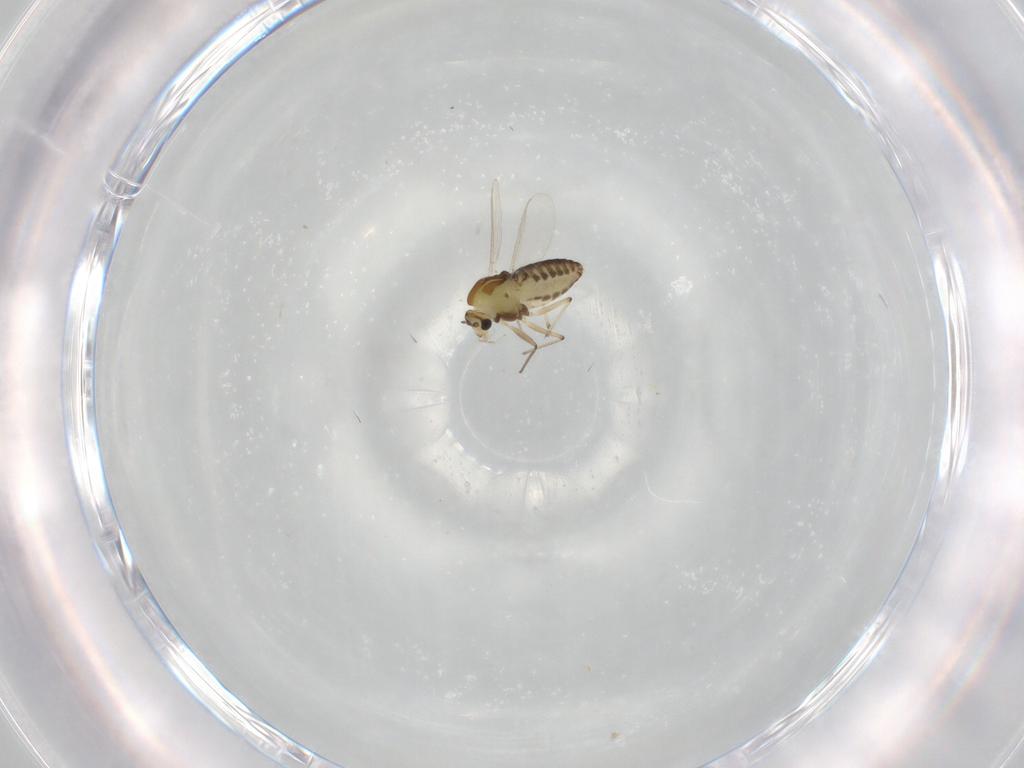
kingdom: Animalia
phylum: Arthropoda
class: Insecta
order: Diptera
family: Chironomidae
